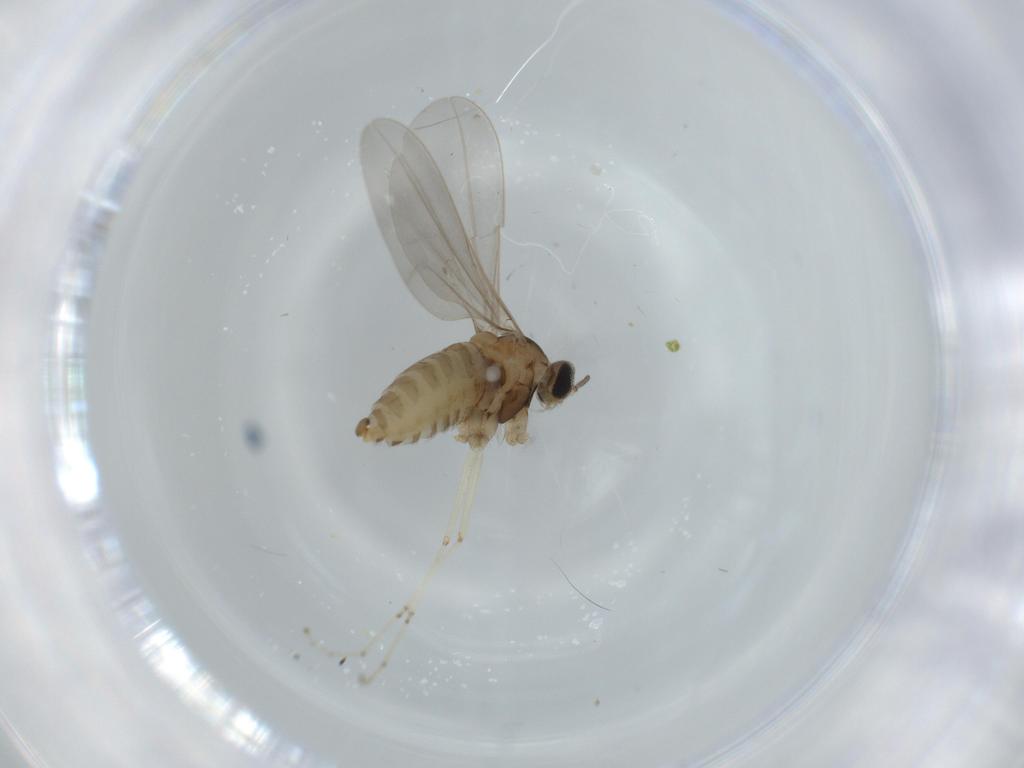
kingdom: Animalia
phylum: Arthropoda
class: Insecta
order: Diptera
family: Cecidomyiidae
